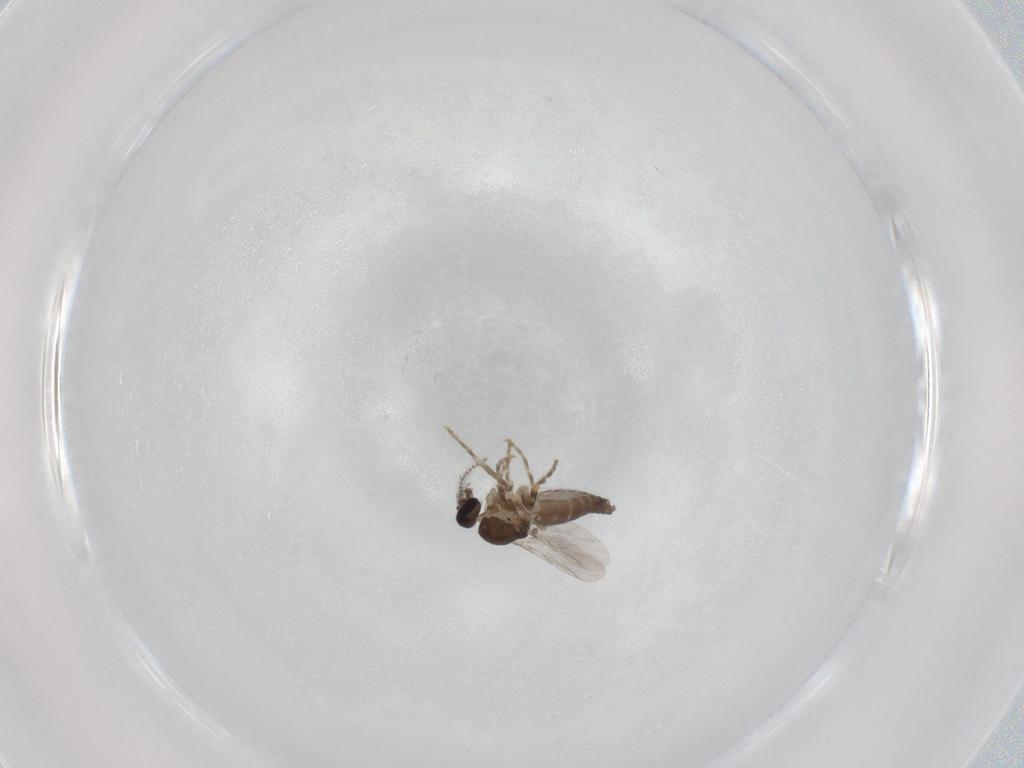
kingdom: Animalia
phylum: Arthropoda
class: Insecta
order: Diptera
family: Ceratopogonidae
